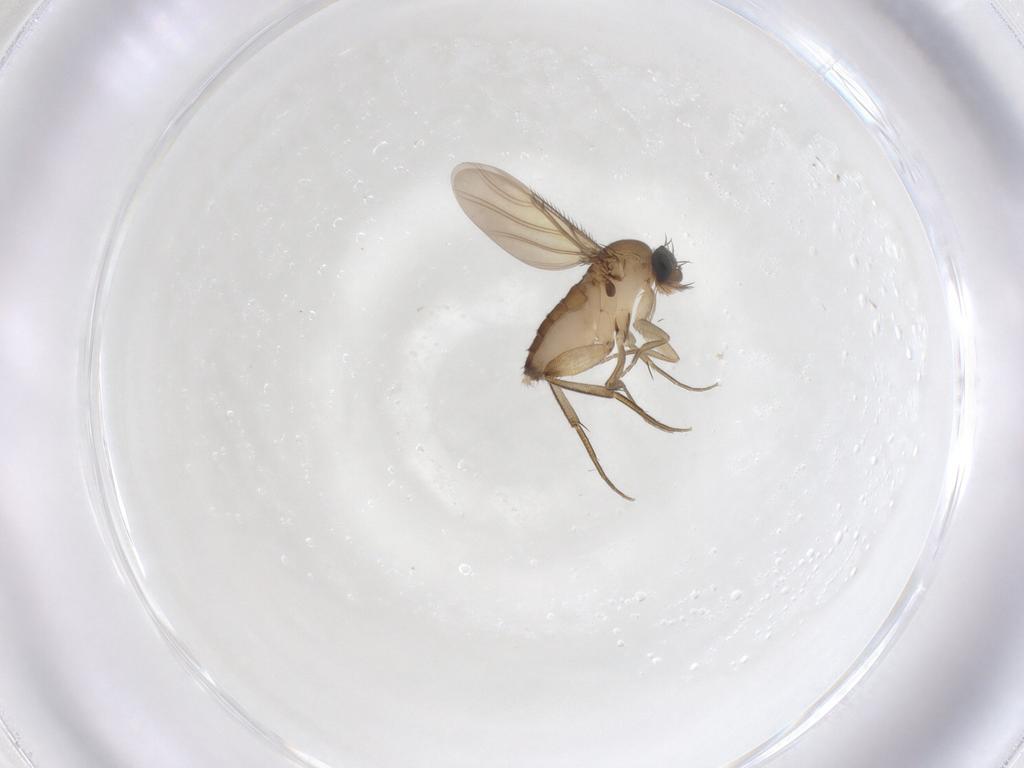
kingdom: Animalia
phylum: Arthropoda
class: Insecta
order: Diptera
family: Phoridae
